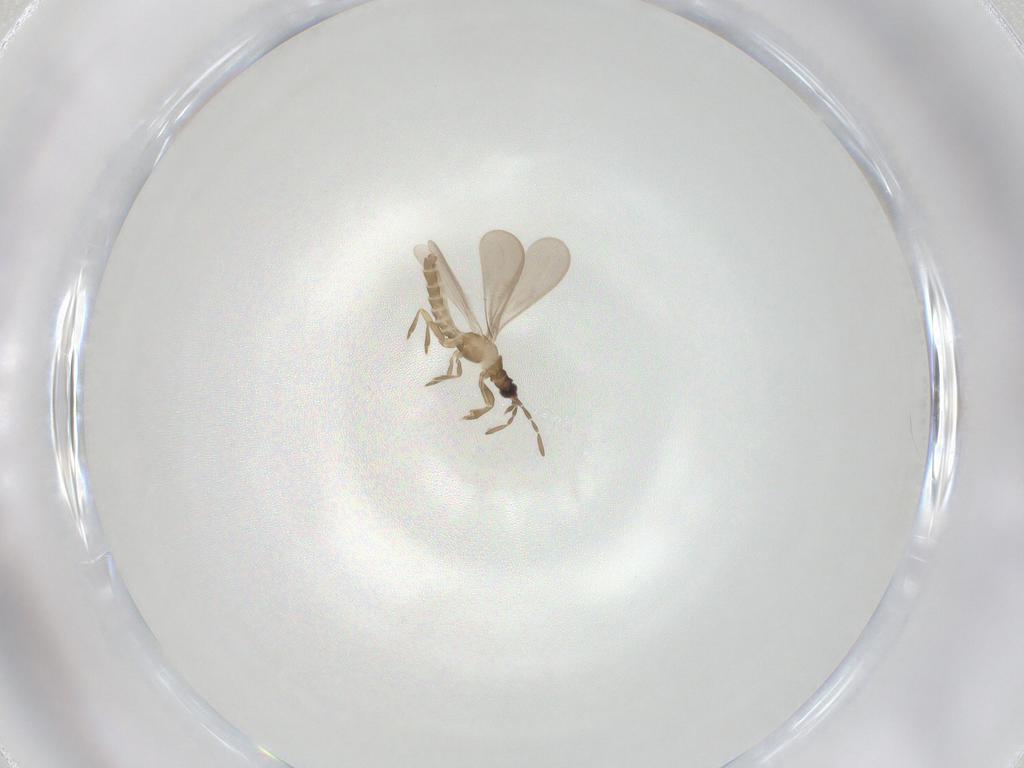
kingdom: Animalia
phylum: Arthropoda
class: Insecta
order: Hemiptera
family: Enicocephalidae
